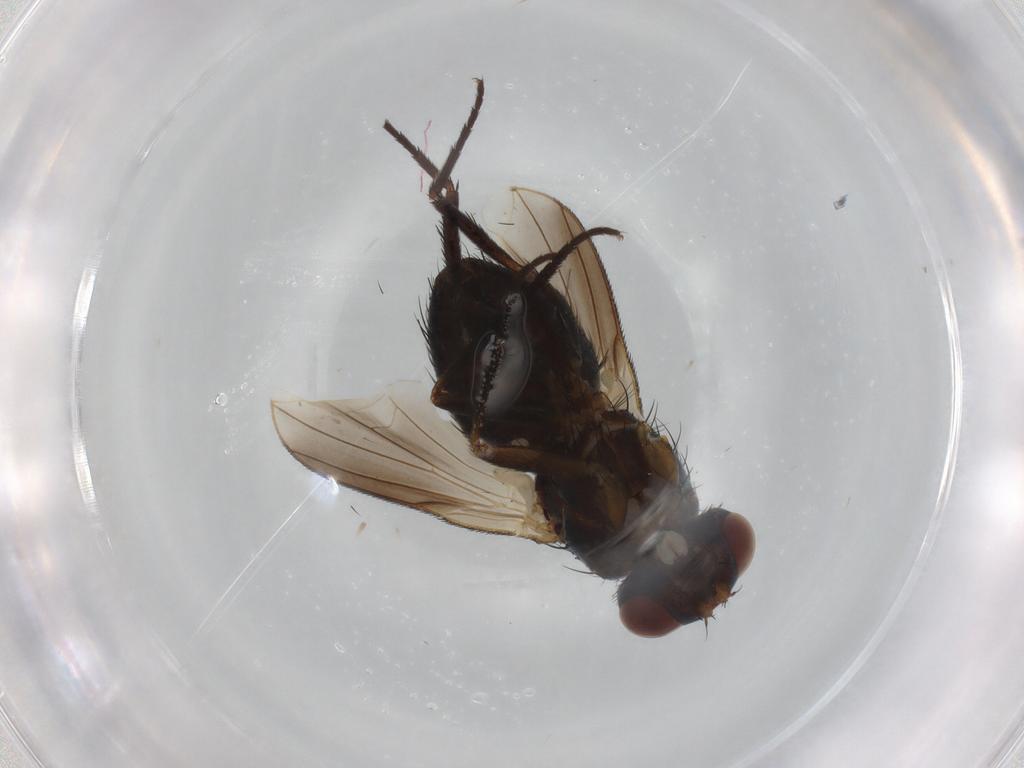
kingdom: Animalia
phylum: Arthropoda
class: Insecta
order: Diptera
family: Tachinidae
